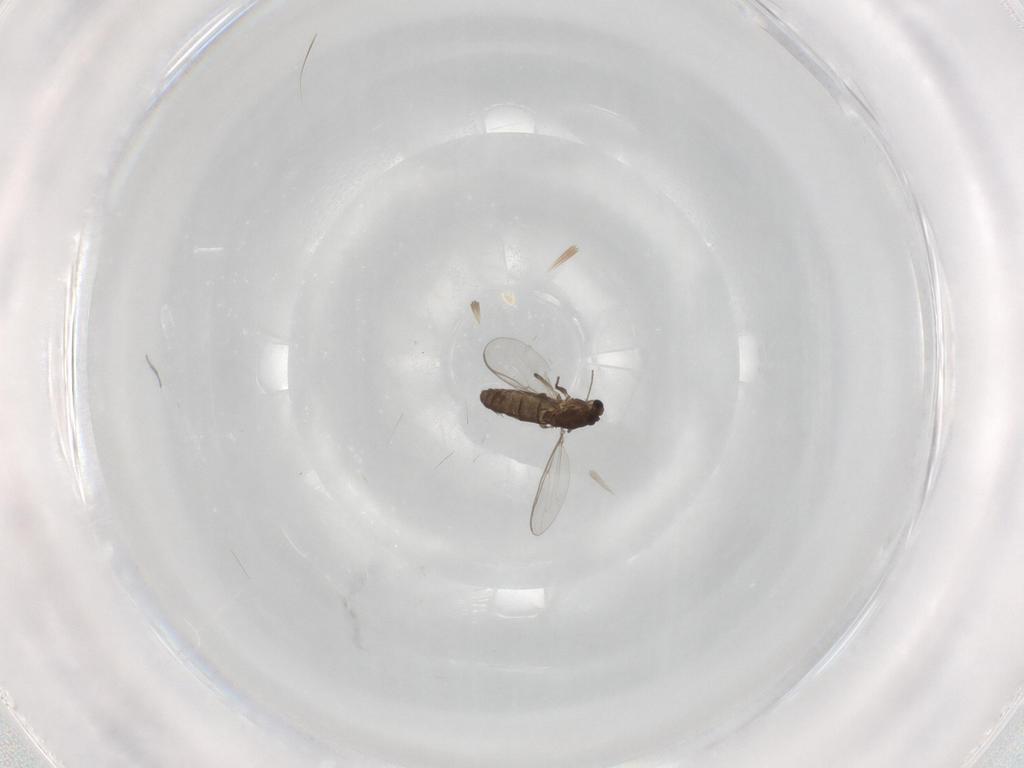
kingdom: Animalia
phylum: Arthropoda
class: Insecta
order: Diptera
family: Chironomidae
